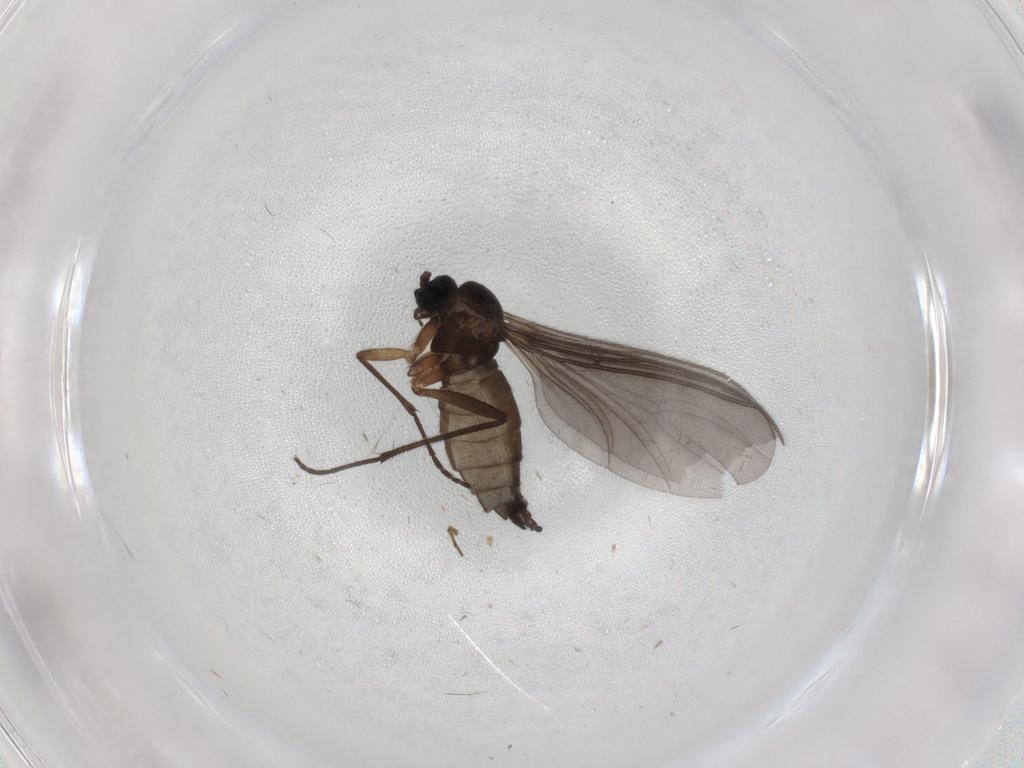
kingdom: Animalia
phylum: Arthropoda
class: Insecta
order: Diptera
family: Sciaridae
